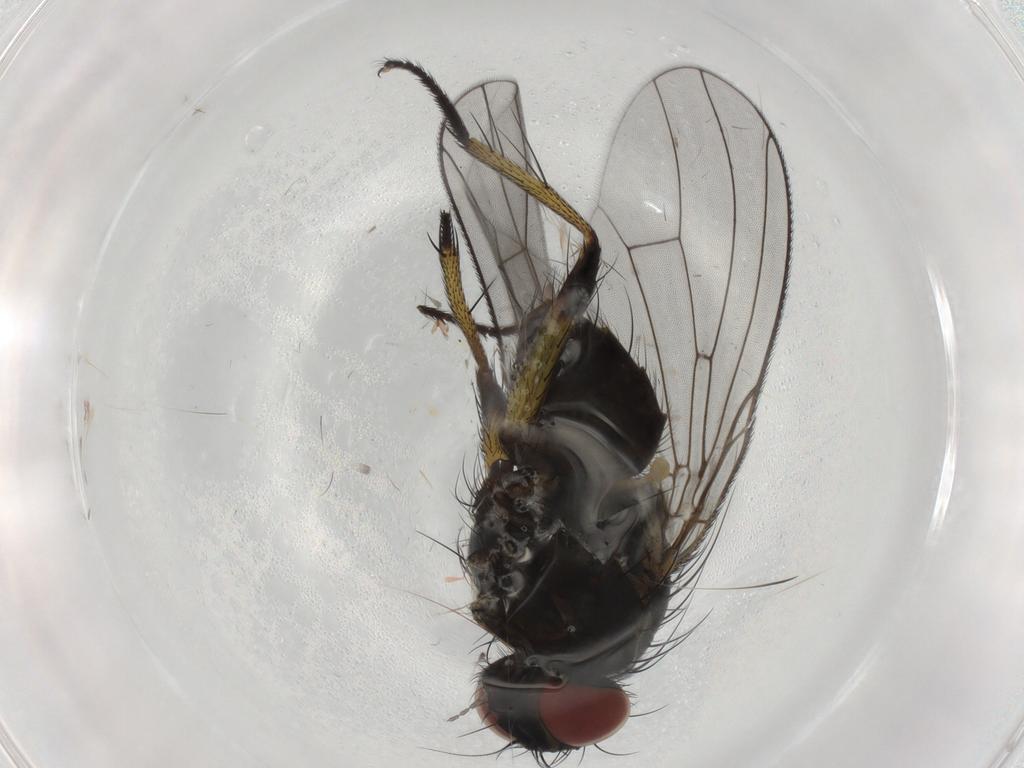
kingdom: Animalia
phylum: Arthropoda
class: Insecta
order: Diptera
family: Muscidae
